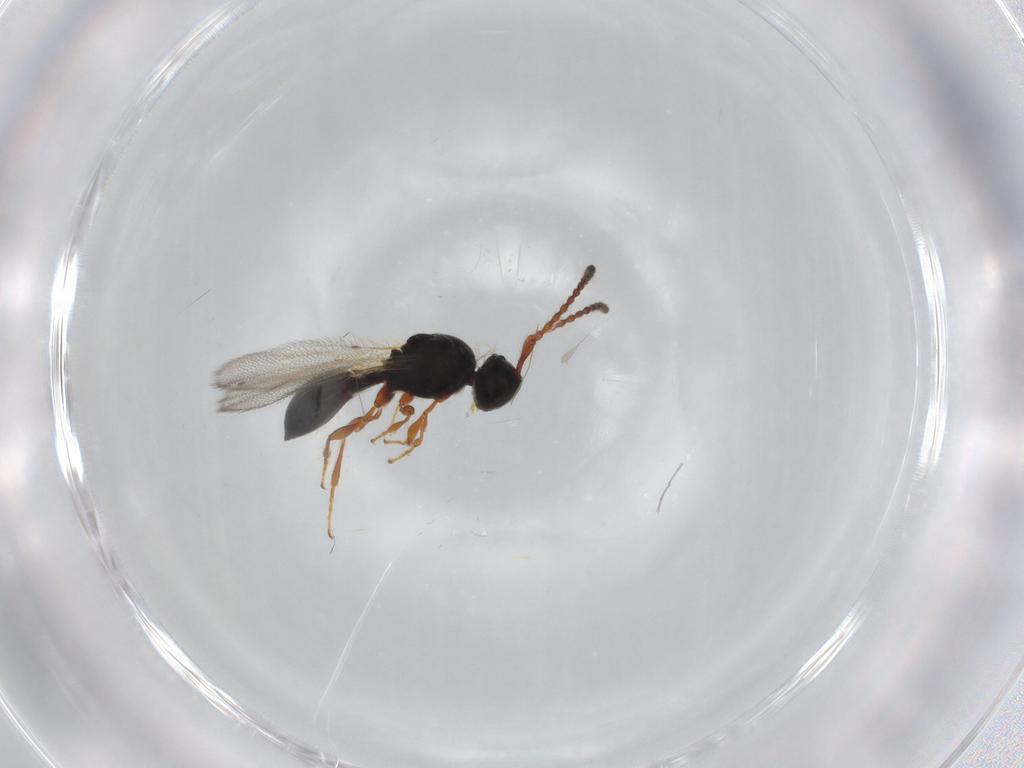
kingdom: Animalia
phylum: Arthropoda
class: Insecta
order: Hymenoptera
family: Diapriidae
